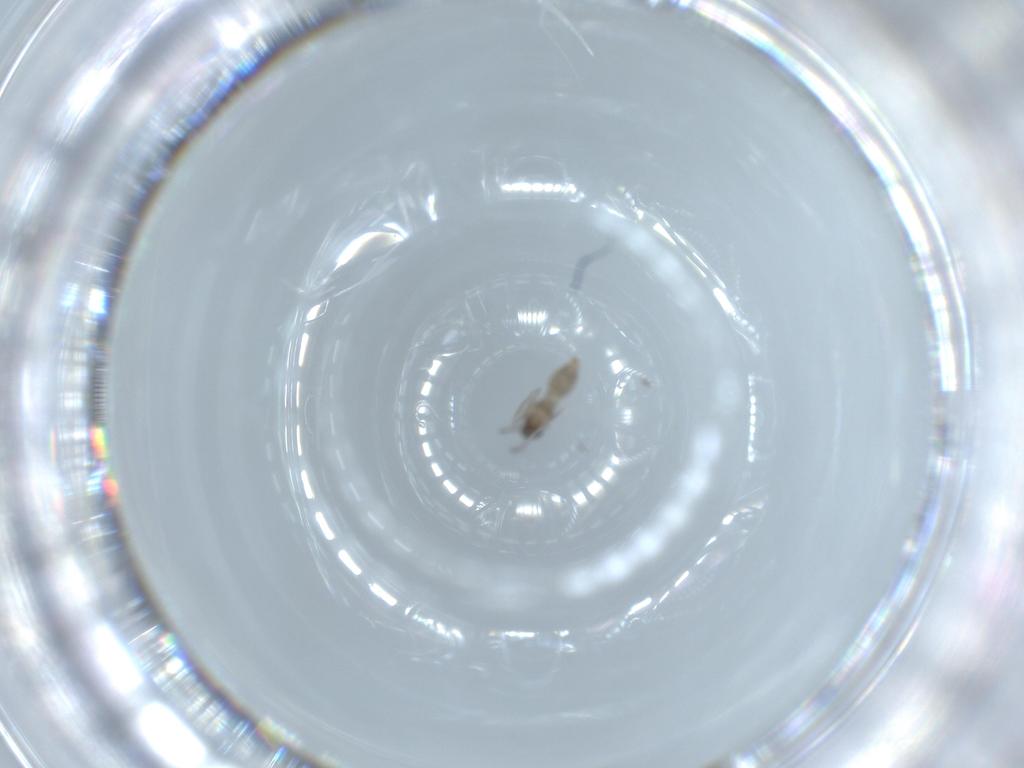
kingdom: Animalia
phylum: Arthropoda
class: Insecta
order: Diptera
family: Cecidomyiidae
